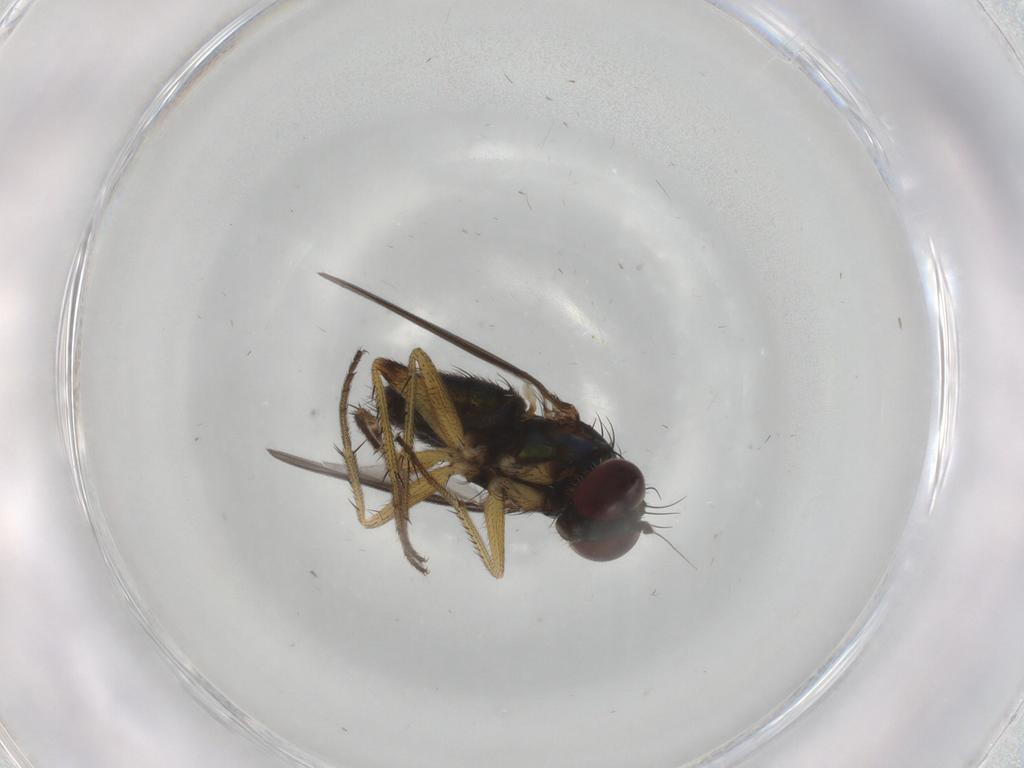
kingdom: Animalia
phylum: Arthropoda
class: Insecta
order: Diptera
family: Dolichopodidae
